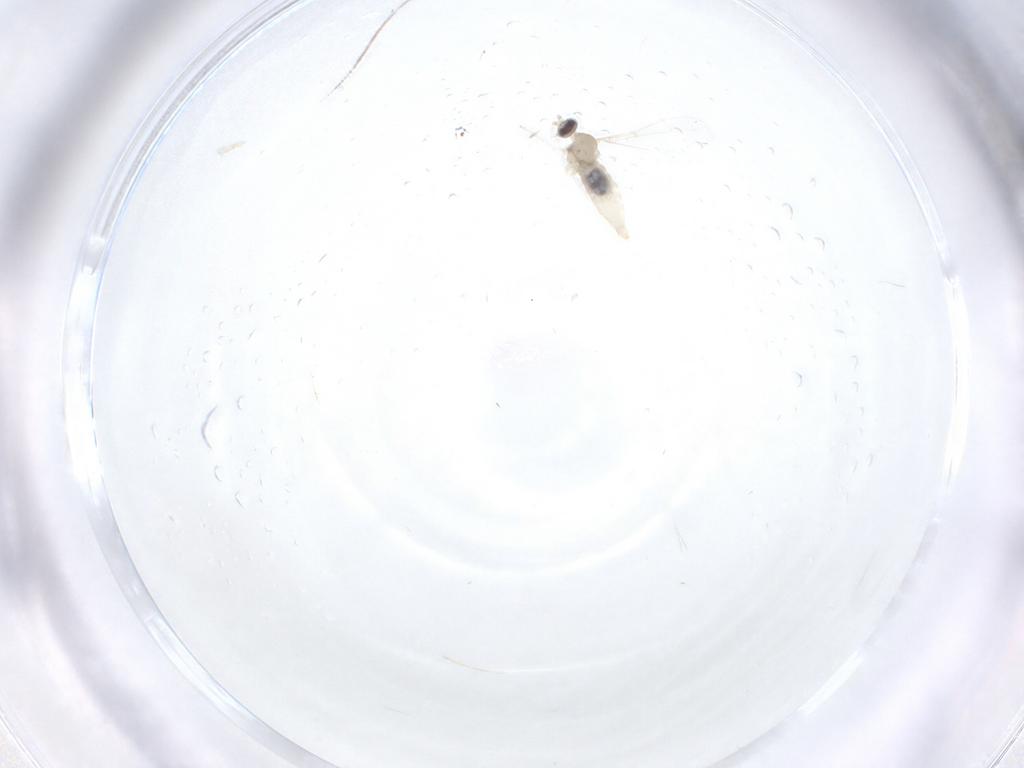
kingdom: Animalia
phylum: Arthropoda
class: Insecta
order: Diptera
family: Cecidomyiidae
